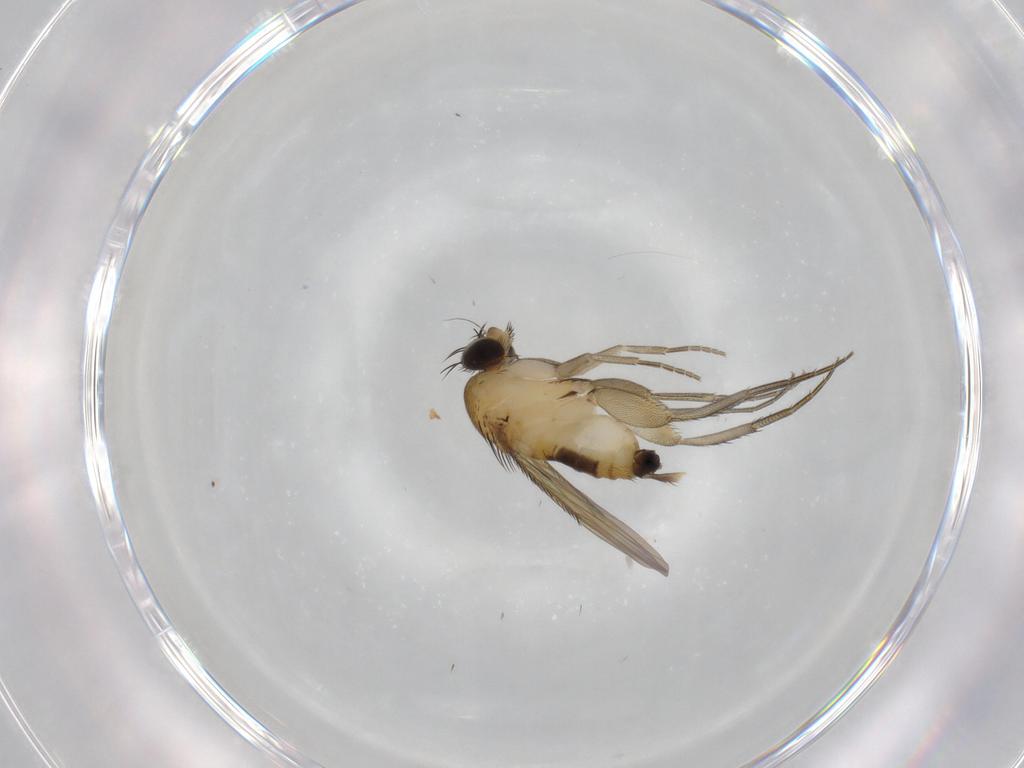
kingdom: Animalia
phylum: Arthropoda
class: Insecta
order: Diptera
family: Phoridae
